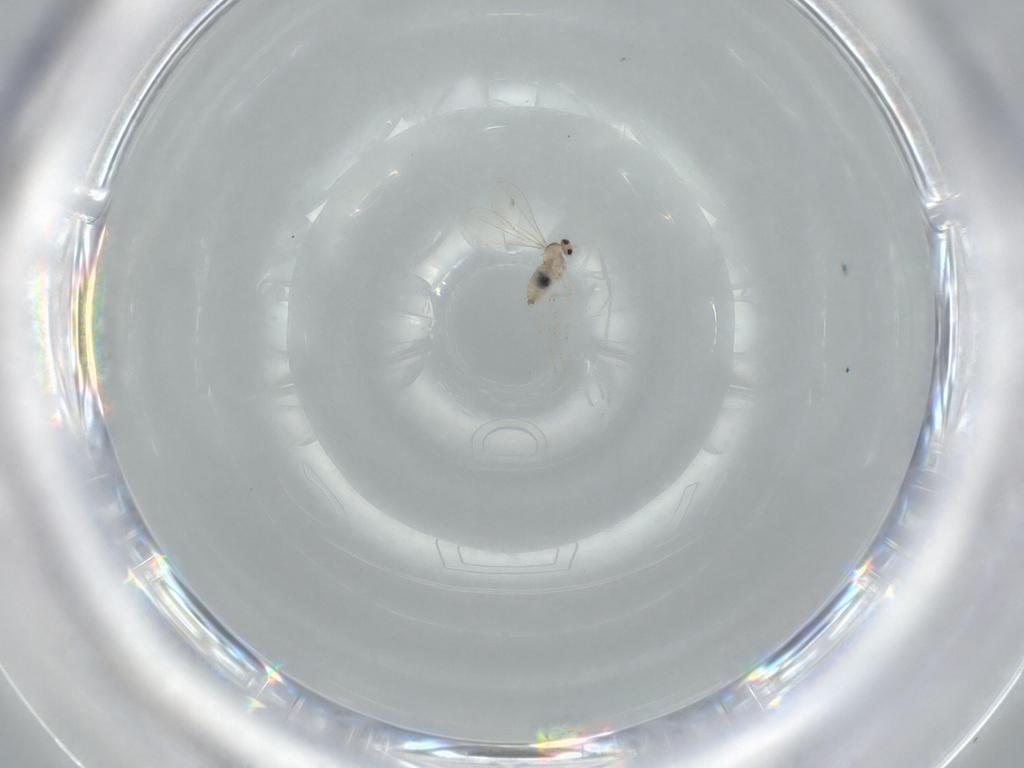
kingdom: Animalia
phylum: Arthropoda
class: Insecta
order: Diptera
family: Cecidomyiidae
